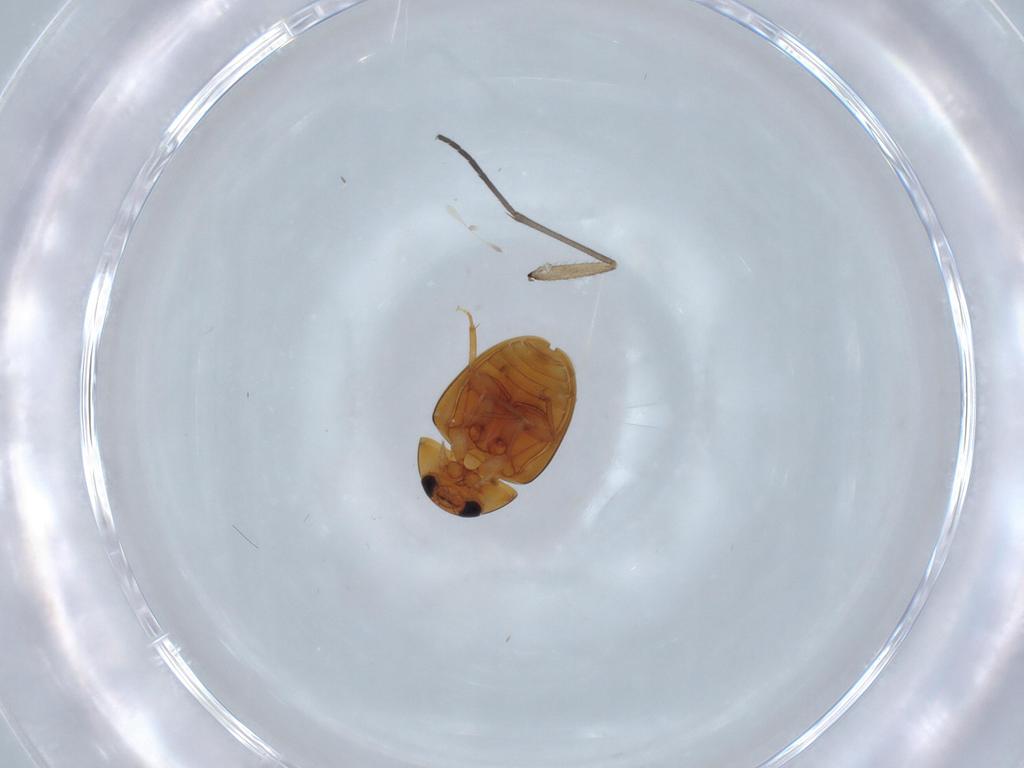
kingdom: Animalia
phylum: Arthropoda
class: Insecta
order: Coleoptera
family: Phalacridae
